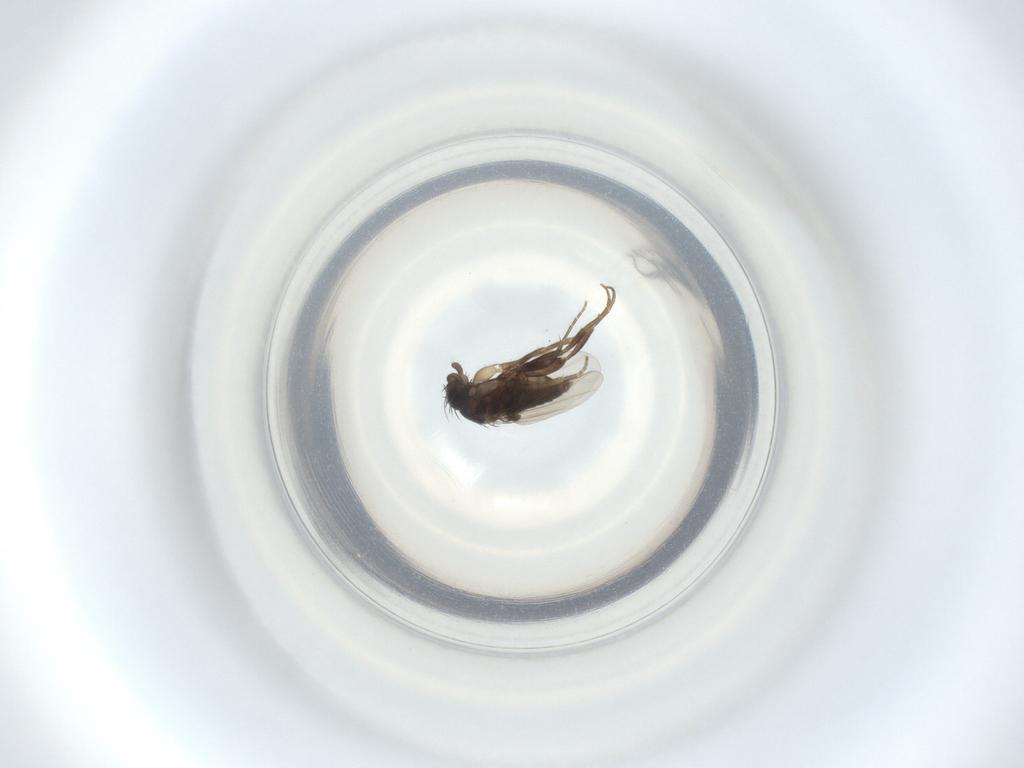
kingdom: Animalia
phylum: Arthropoda
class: Insecta
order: Diptera
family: Phoridae
